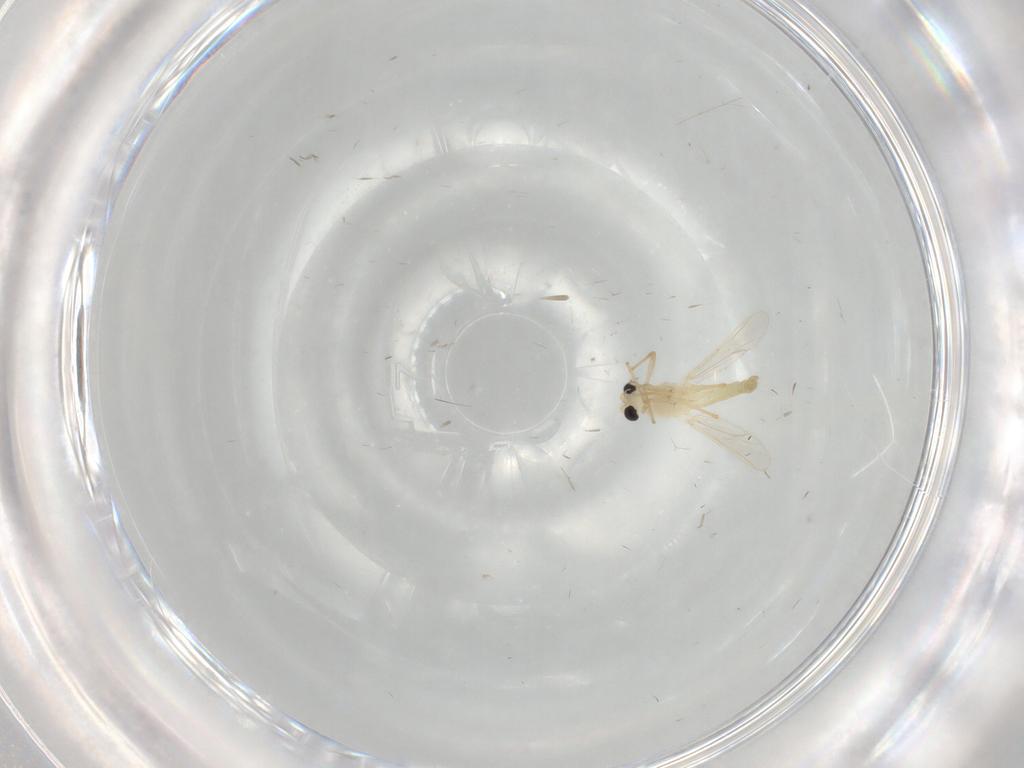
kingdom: Animalia
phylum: Arthropoda
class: Insecta
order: Diptera
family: Chironomidae
